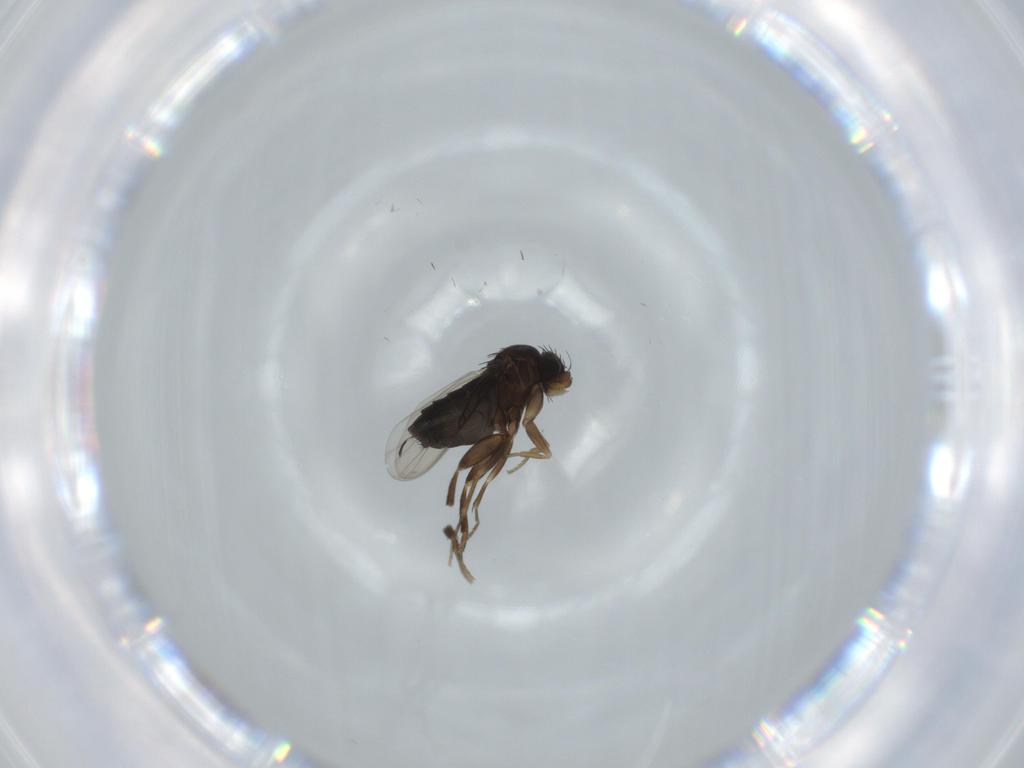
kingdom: Animalia
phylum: Arthropoda
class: Insecta
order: Diptera
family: Phoridae
